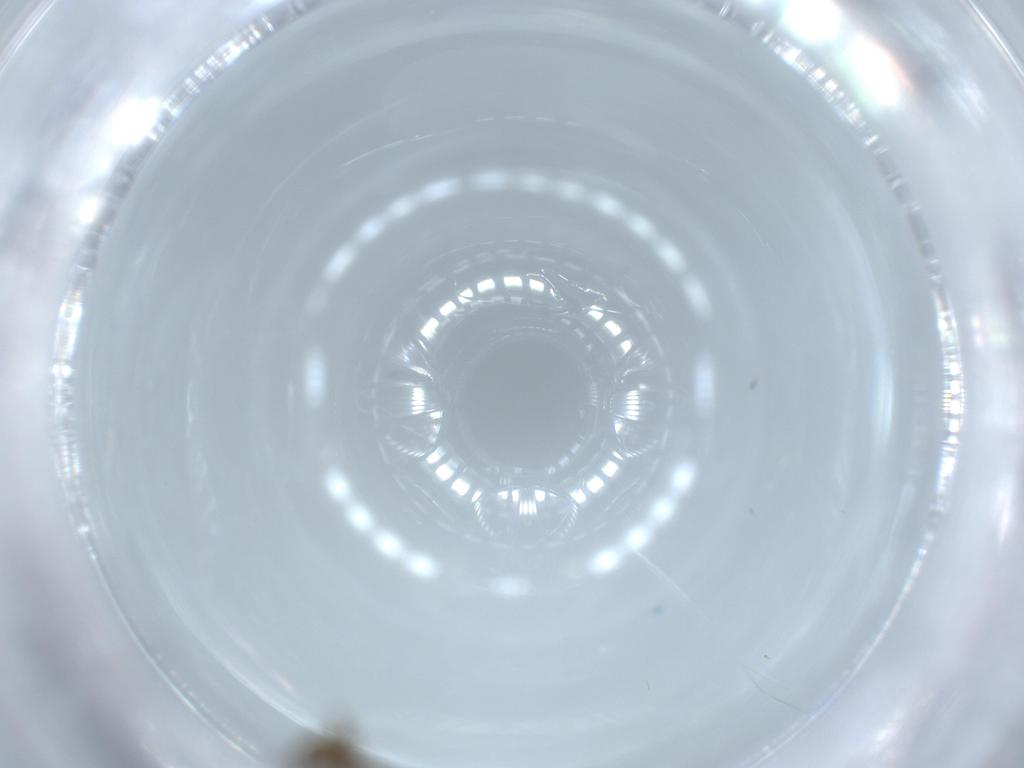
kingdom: Animalia
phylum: Arthropoda
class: Insecta
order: Diptera
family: Chironomidae
